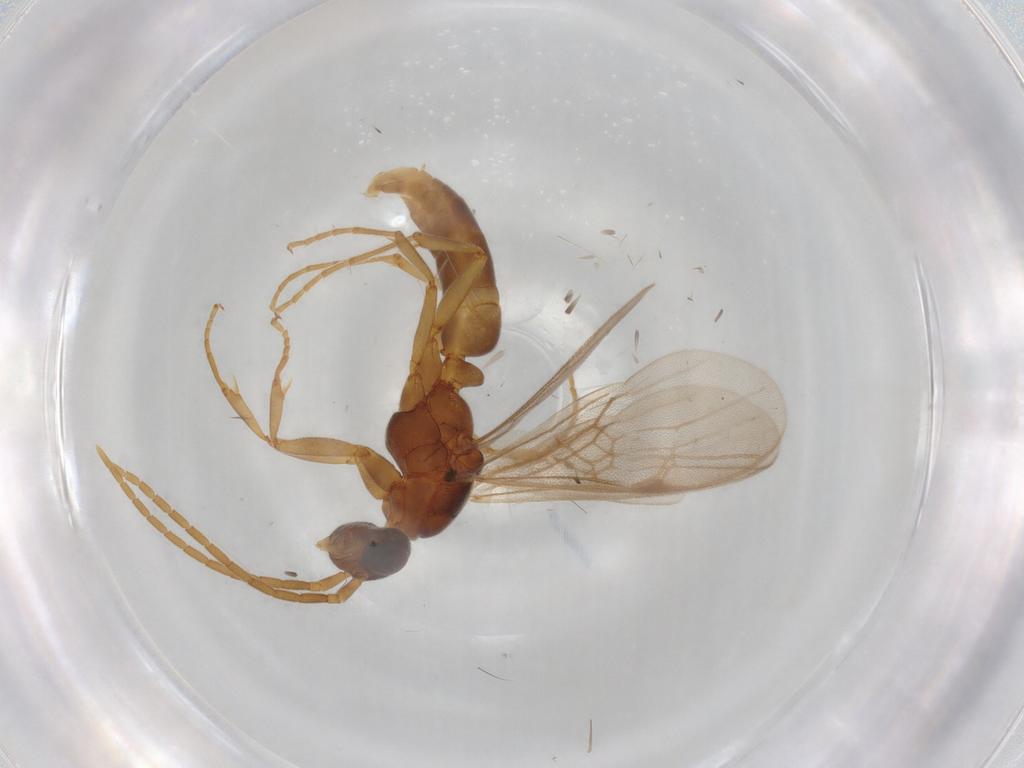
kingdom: Animalia
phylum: Arthropoda
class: Insecta
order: Hymenoptera
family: Formicidae
